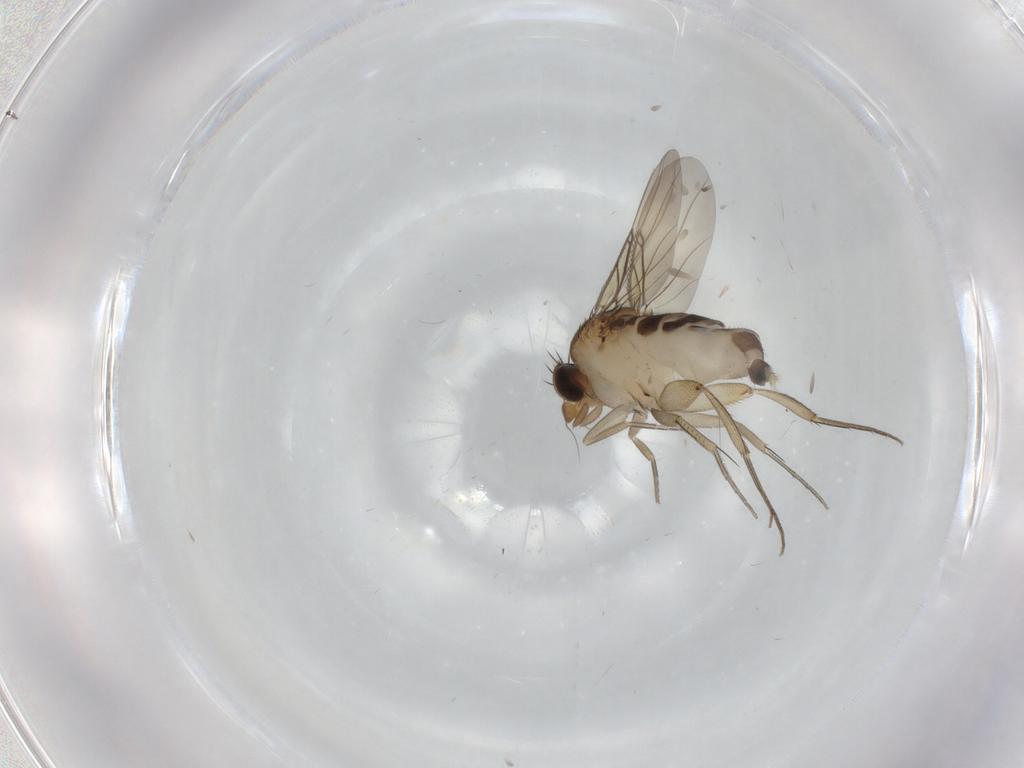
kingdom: Animalia
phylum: Arthropoda
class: Insecta
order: Diptera
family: Phoridae
